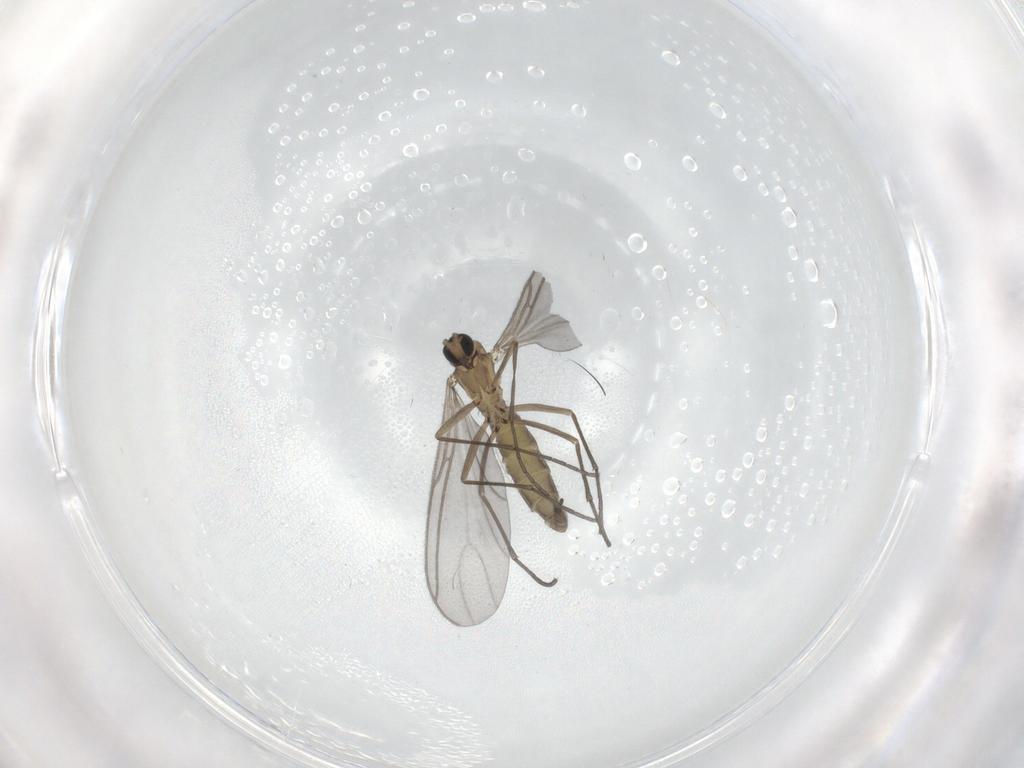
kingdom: Animalia
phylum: Arthropoda
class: Insecta
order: Diptera
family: Sciaridae
